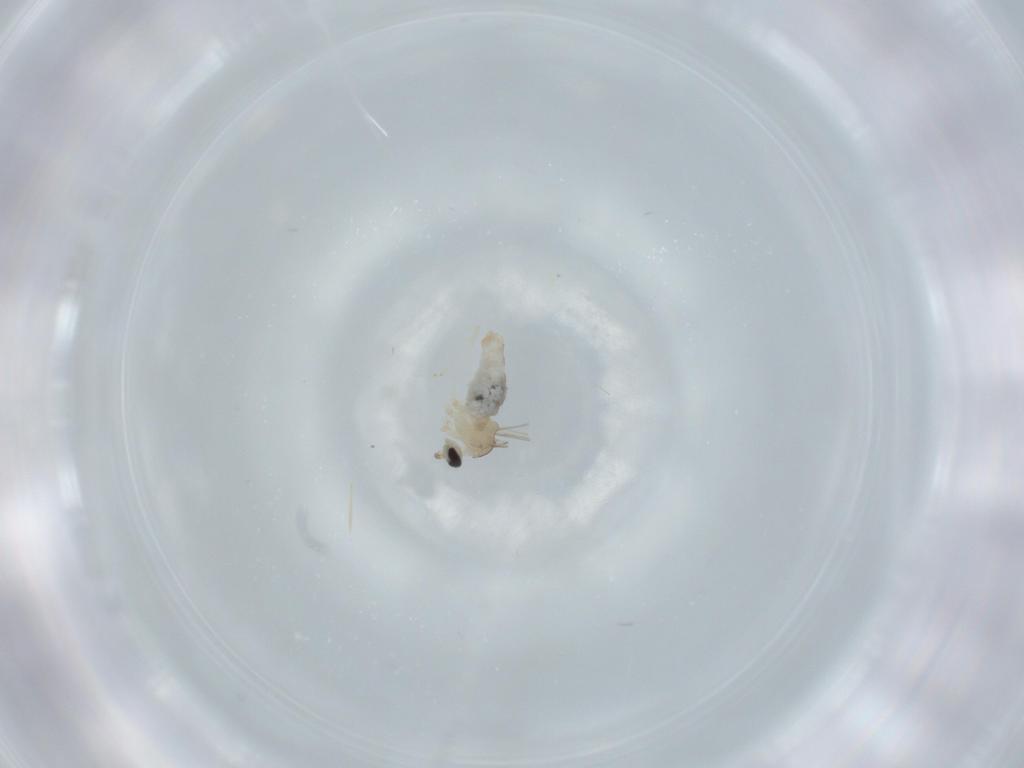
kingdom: Animalia
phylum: Arthropoda
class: Insecta
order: Diptera
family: Cecidomyiidae
